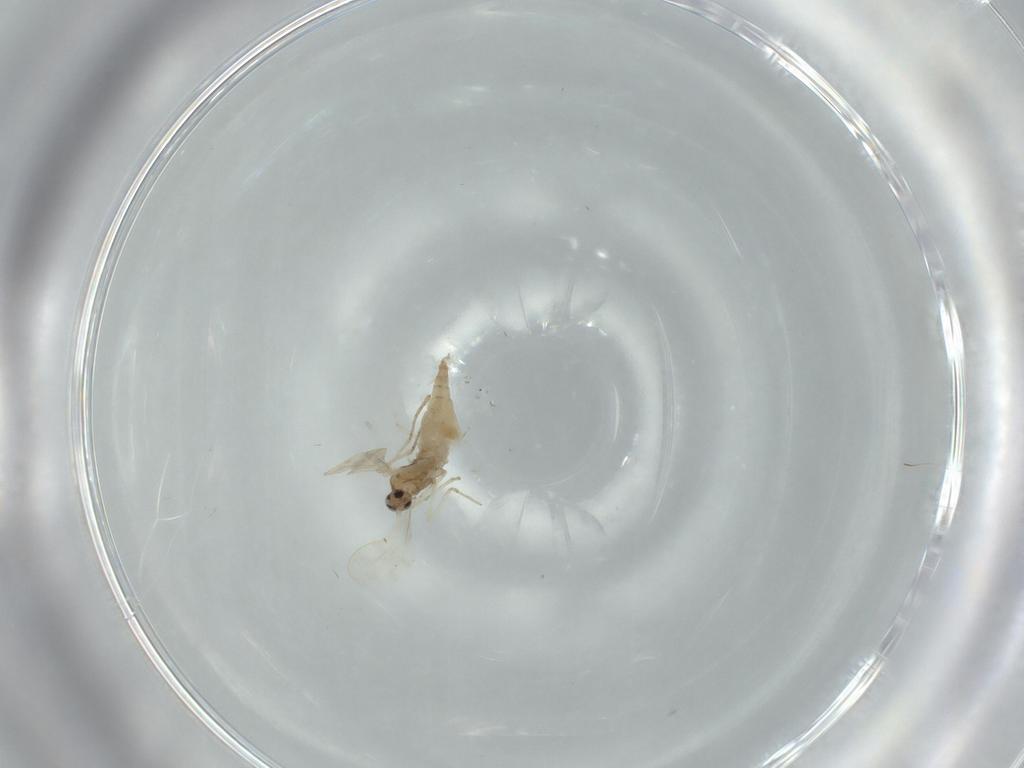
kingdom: Animalia
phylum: Arthropoda
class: Insecta
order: Diptera
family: Cecidomyiidae
